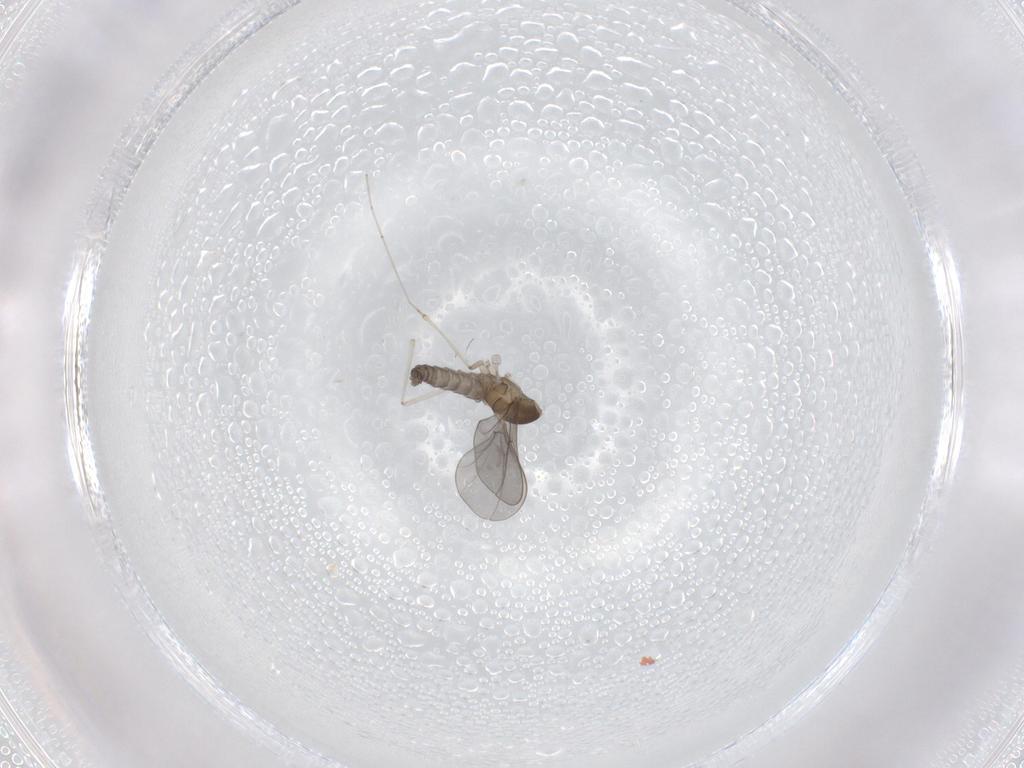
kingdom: Animalia
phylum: Arthropoda
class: Insecta
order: Diptera
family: Cecidomyiidae
